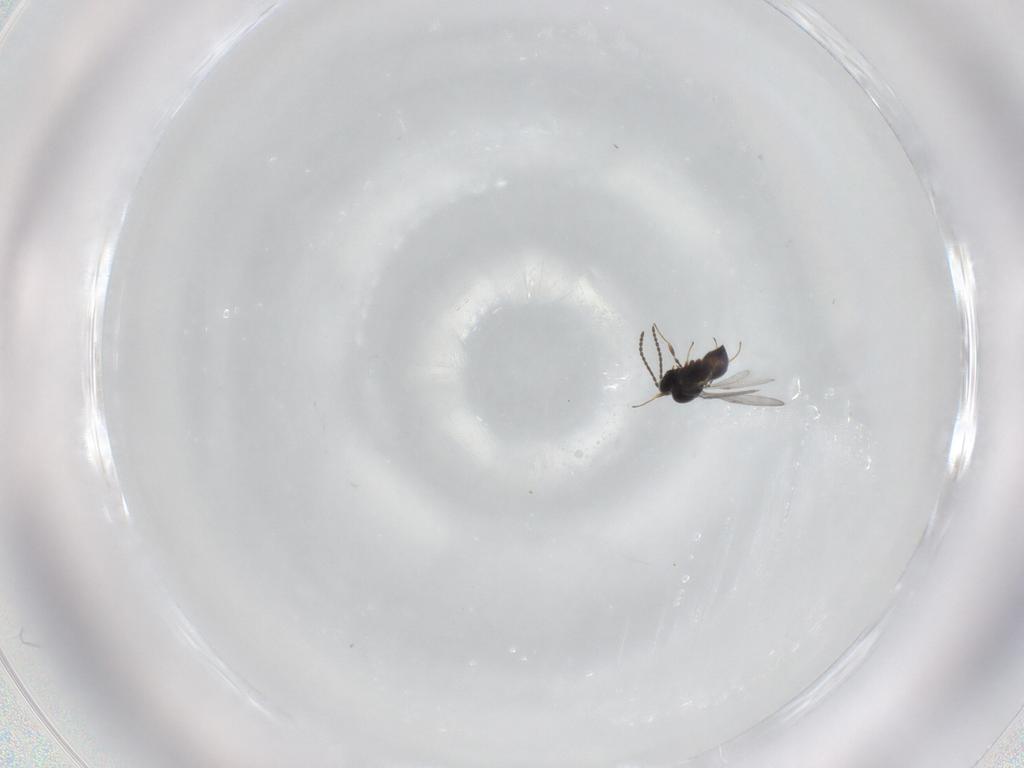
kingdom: Animalia
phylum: Arthropoda
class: Insecta
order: Hymenoptera
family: Scelionidae
